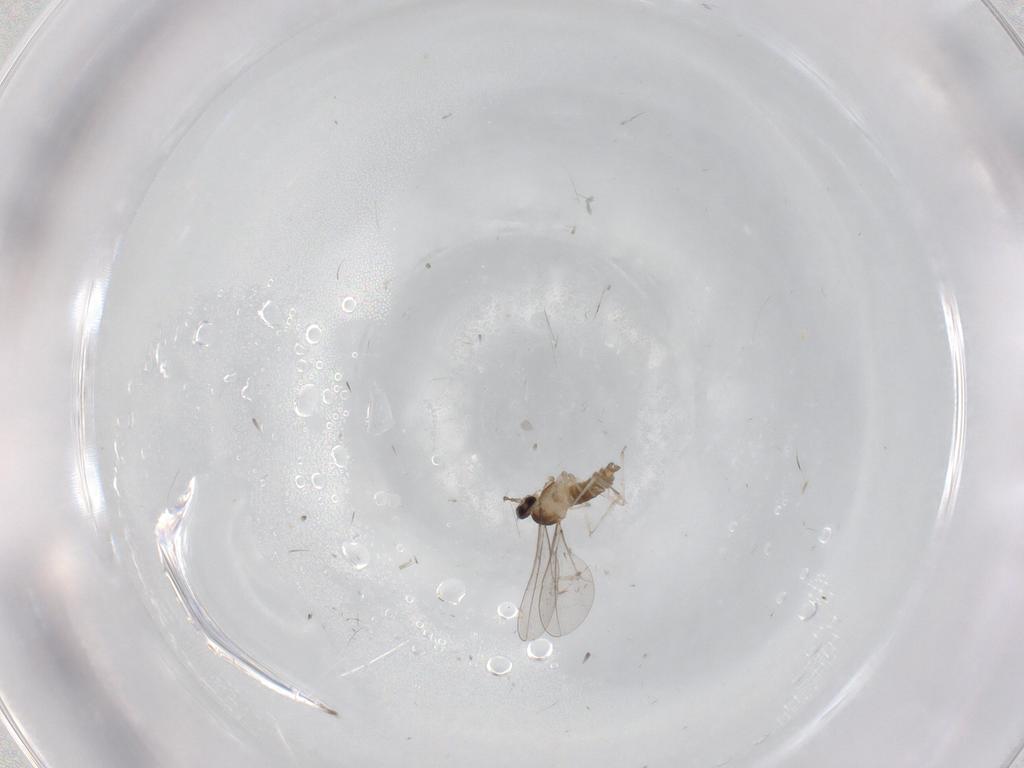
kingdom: Animalia
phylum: Arthropoda
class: Insecta
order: Diptera
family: Cecidomyiidae
